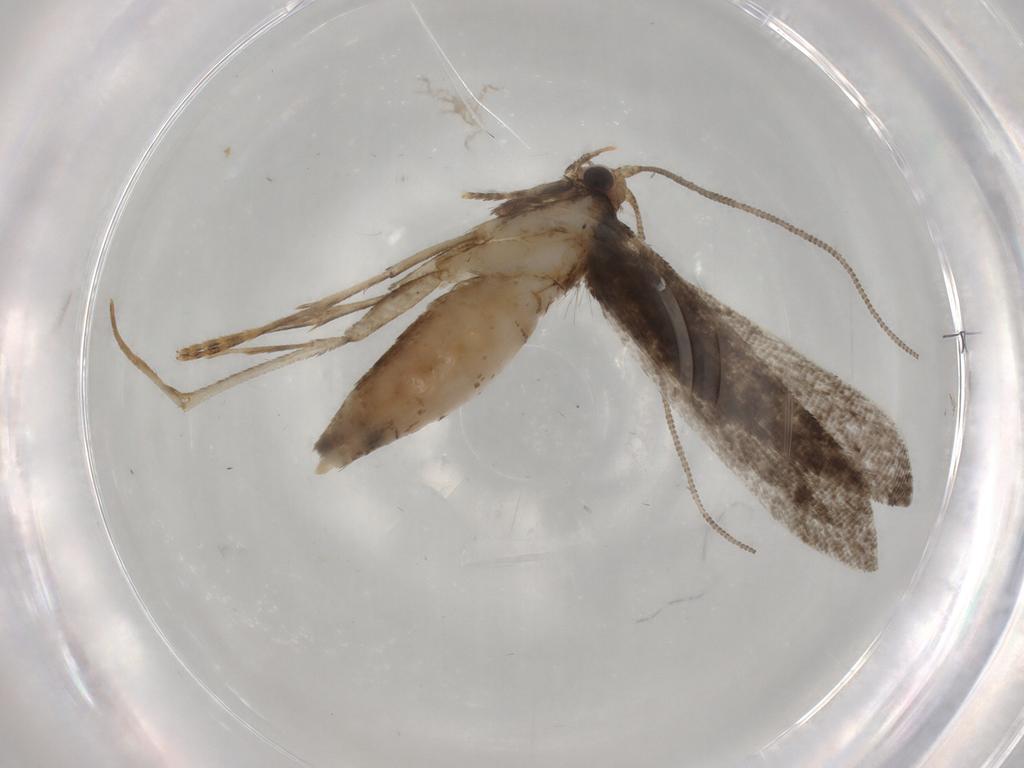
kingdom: Animalia
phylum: Arthropoda
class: Insecta
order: Lepidoptera
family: Tineidae
